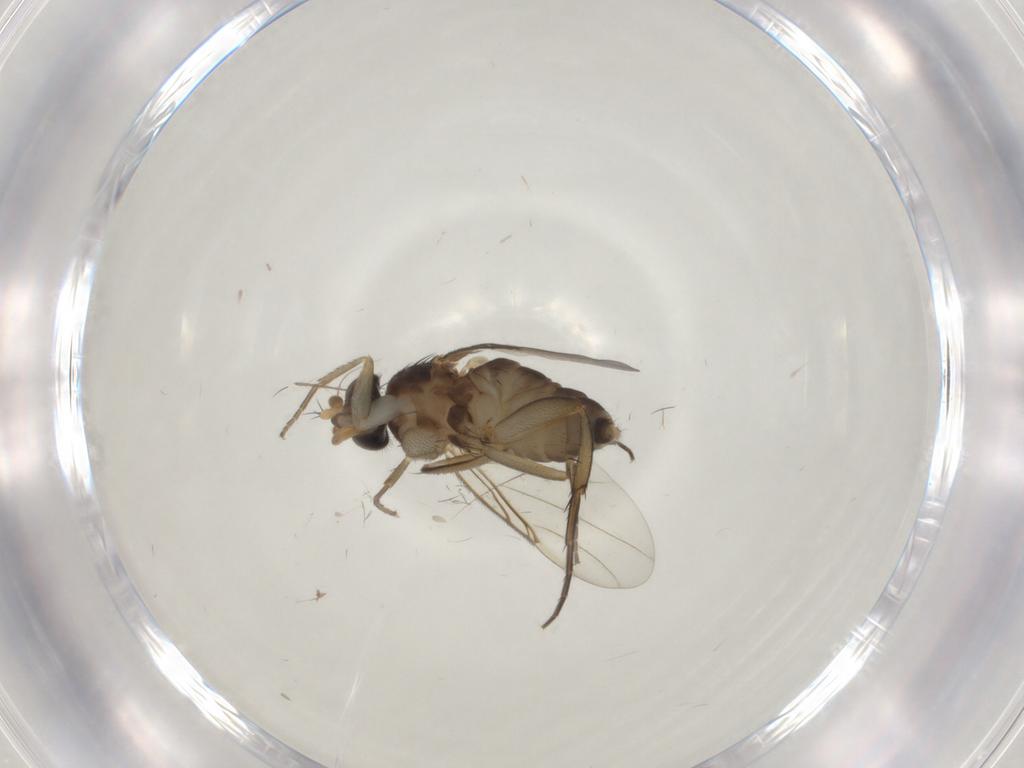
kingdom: Animalia
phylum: Arthropoda
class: Insecta
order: Diptera
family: Phoridae
